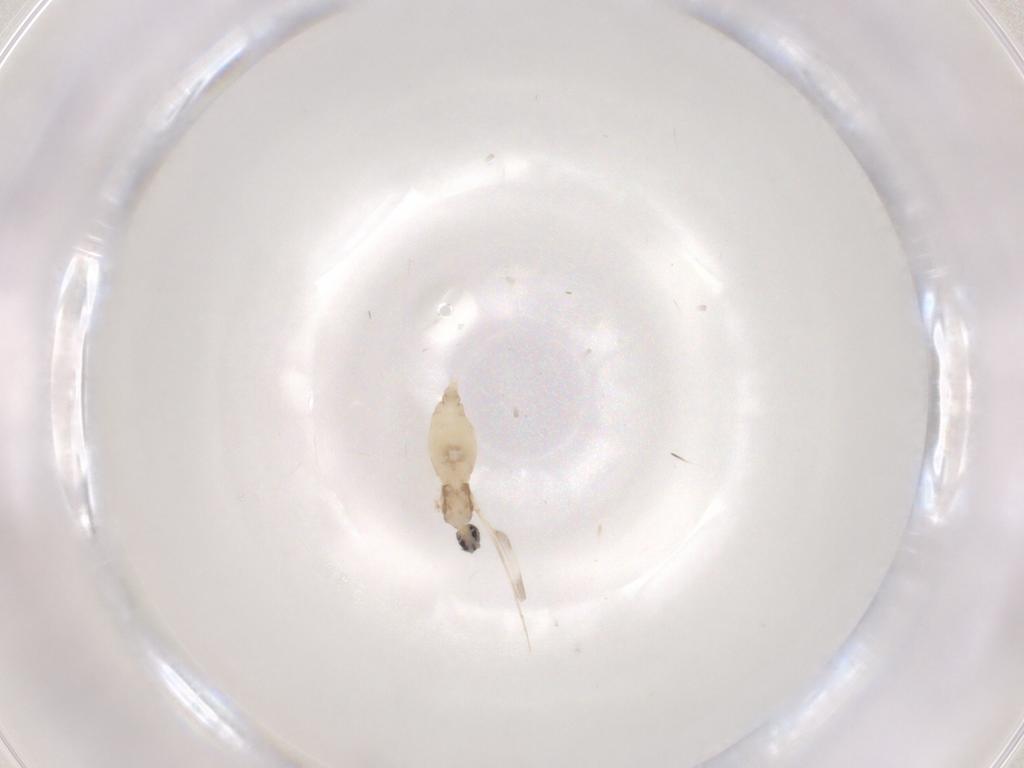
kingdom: Animalia
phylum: Arthropoda
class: Insecta
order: Diptera
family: Cecidomyiidae
